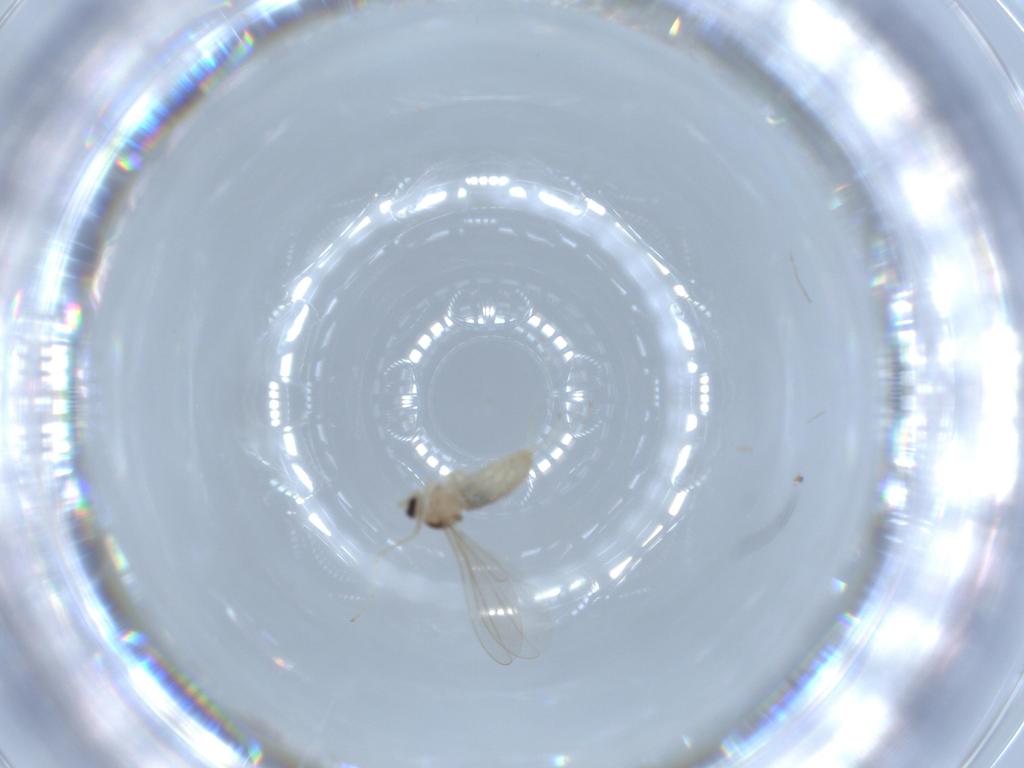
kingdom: Animalia
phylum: Arthropoda
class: Insecta
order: Diptera
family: Cecidomyiidae
